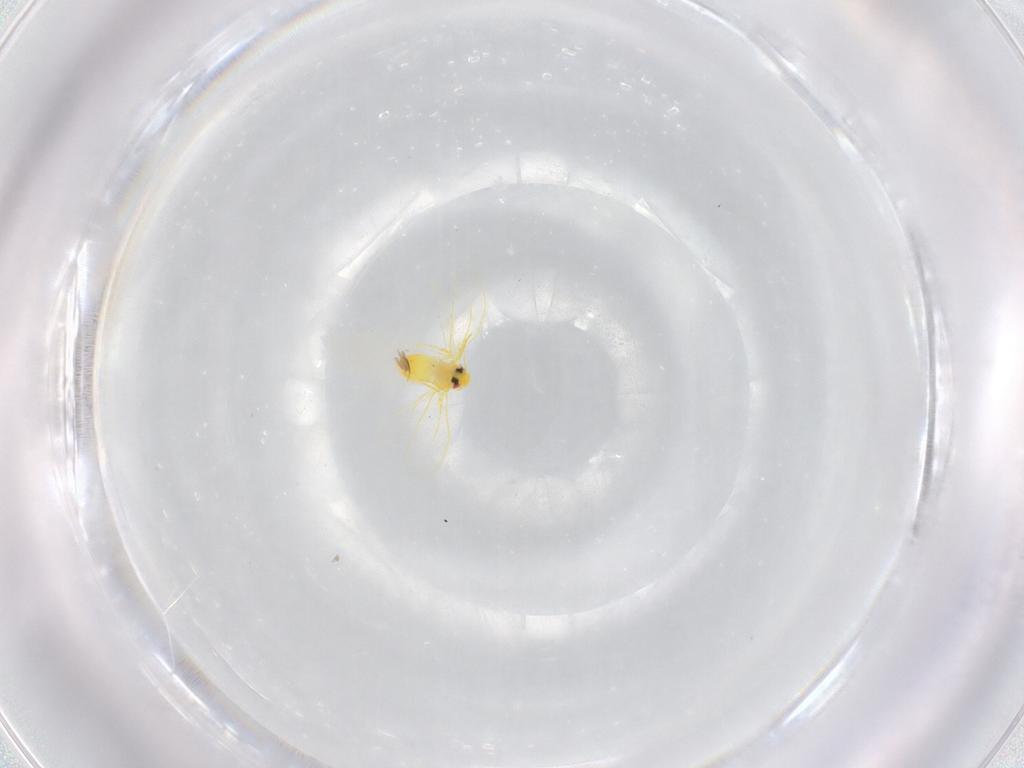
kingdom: Animalia
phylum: Arthropoda
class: Insecta
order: Hemiptera
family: Aleyrodidae
